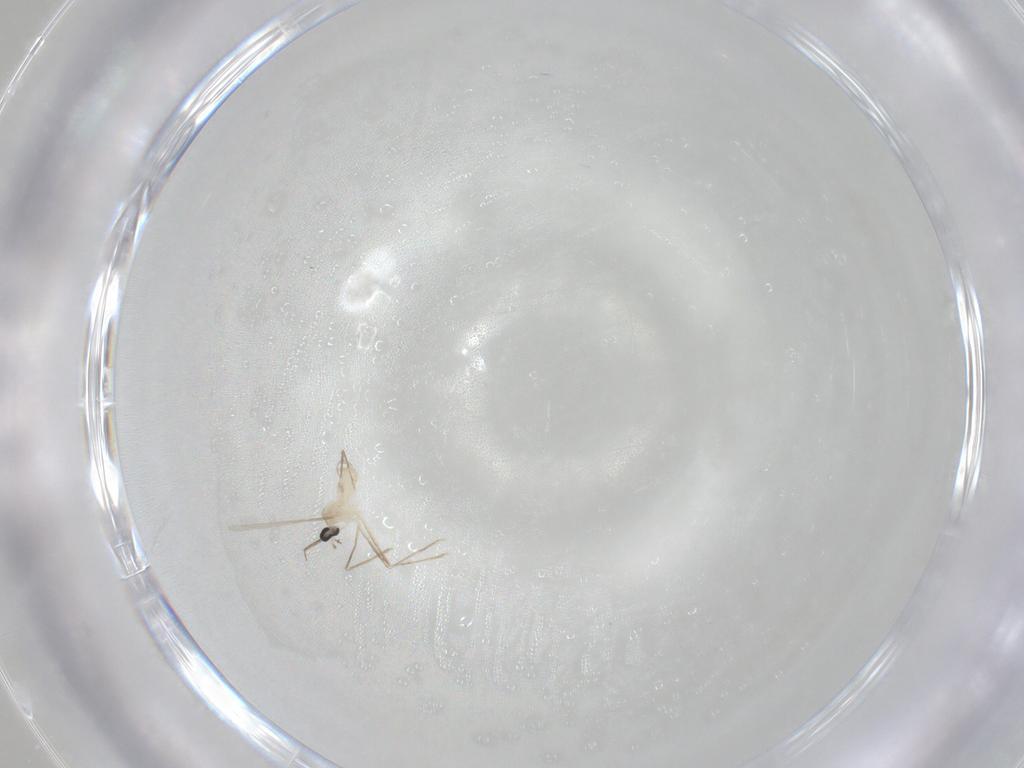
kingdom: Animalia
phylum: Arthropoda
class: Insecta
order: Diptera
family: Cecidomyiidae
